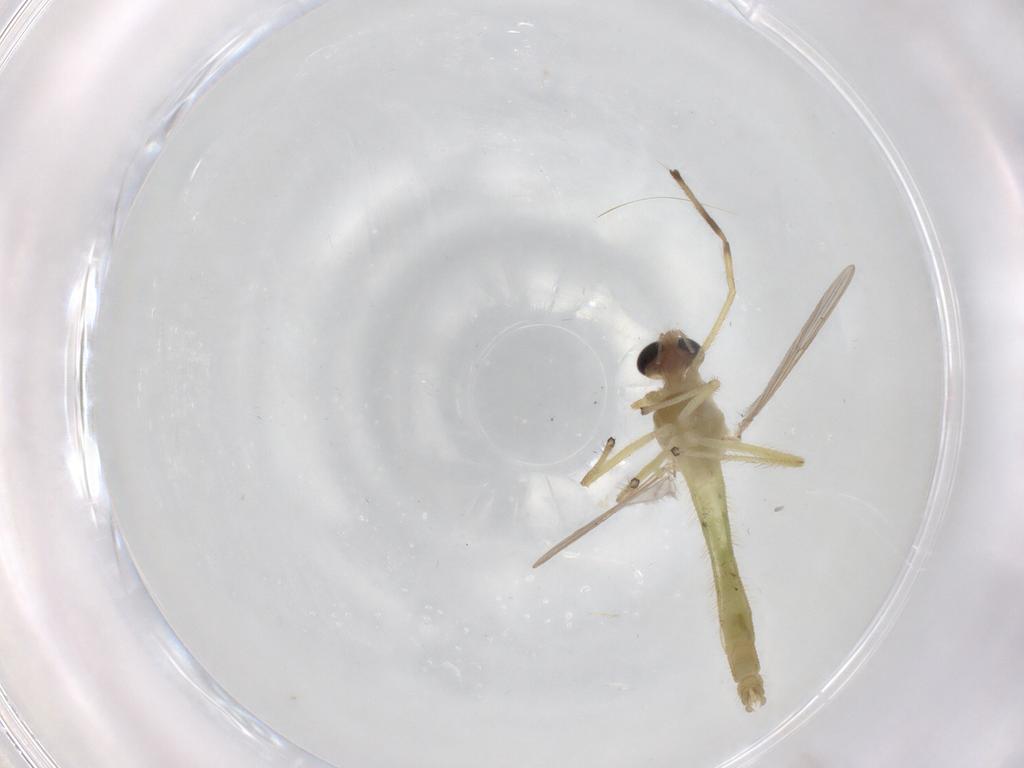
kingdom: Animalia
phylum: Arthropoda
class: Insecta
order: Diptera
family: Chironomidae
